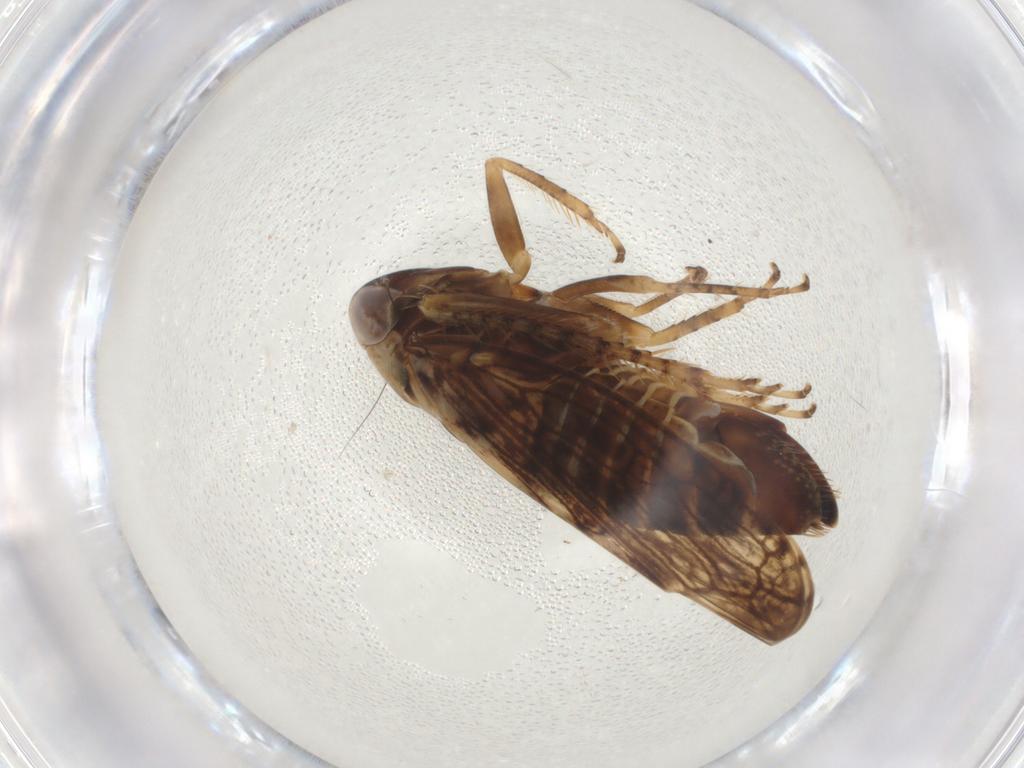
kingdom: Animalia
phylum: Arthropoda
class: Insecta
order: Hemiptera
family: Cicadellidae
